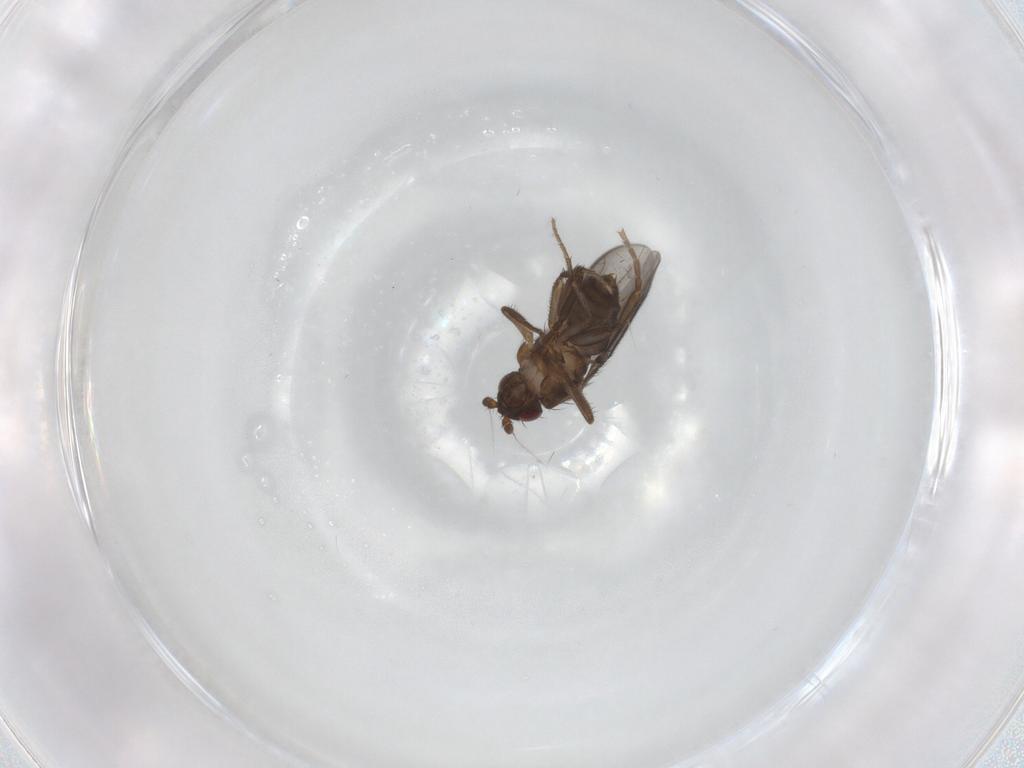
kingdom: Animalia
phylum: Arthropoda
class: Insecta
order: Diptera
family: Sphaeroceridae
